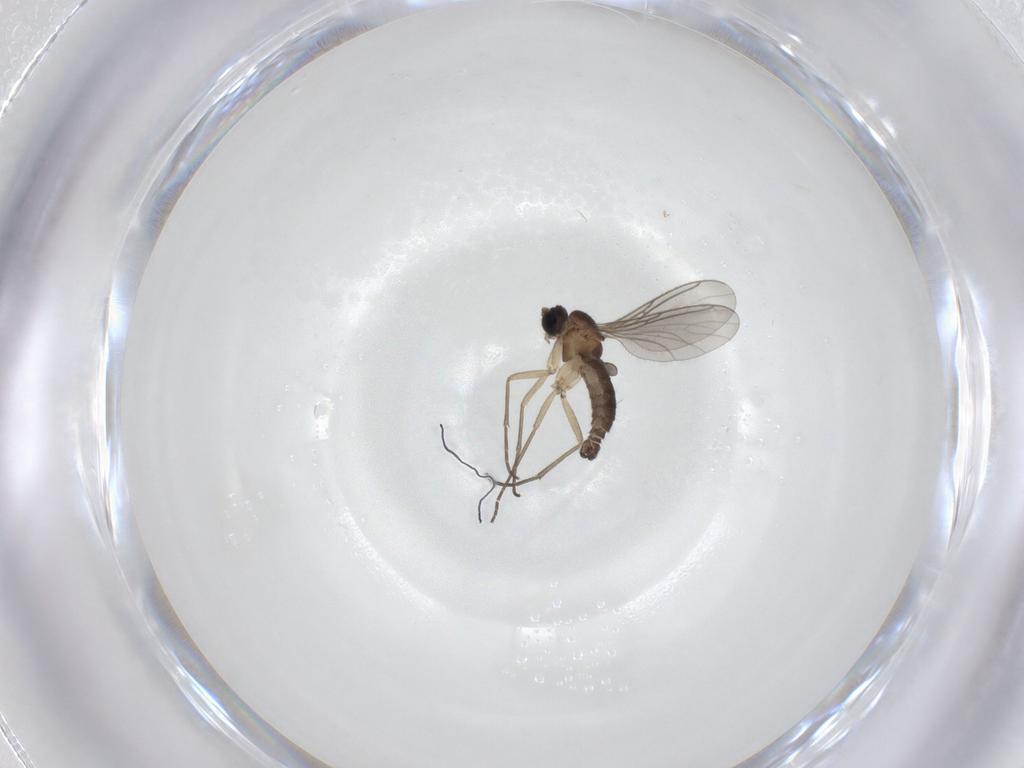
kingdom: Animalia
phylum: Arthropoda
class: Insecta
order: Diptera
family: Sciaridae
